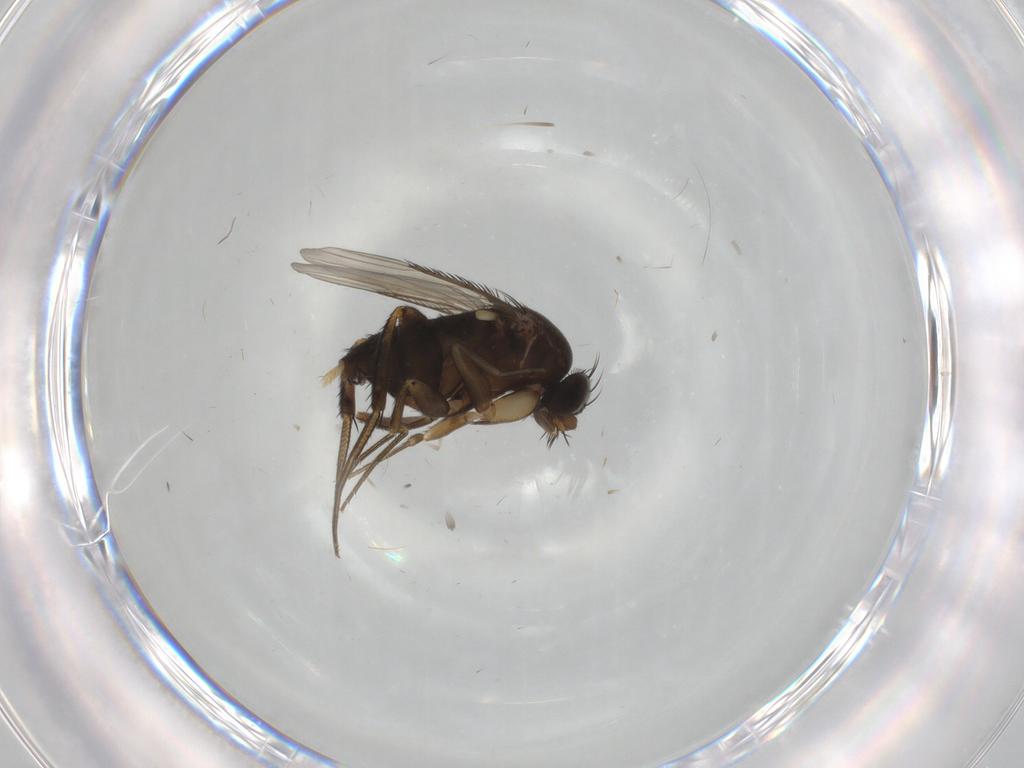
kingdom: Animalia
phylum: Arthropoda
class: Insecta
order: Diptera
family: Phoridae
